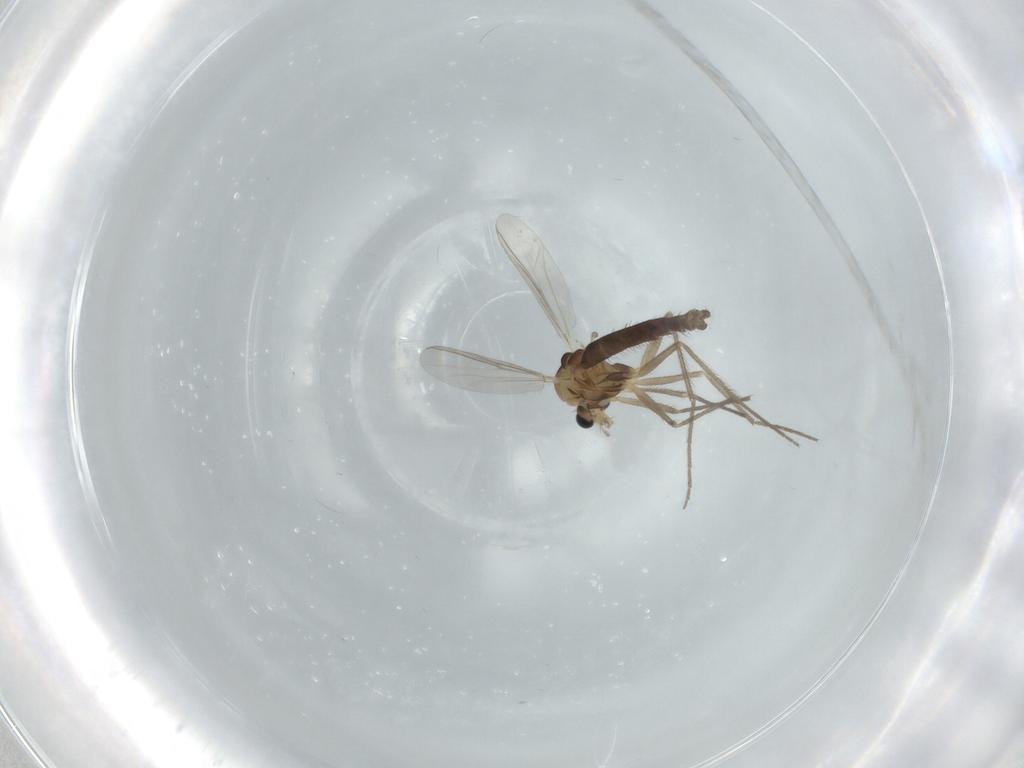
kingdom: Animalia
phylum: Arthropoda
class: Insecta
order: Diptera
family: Chironomidae
